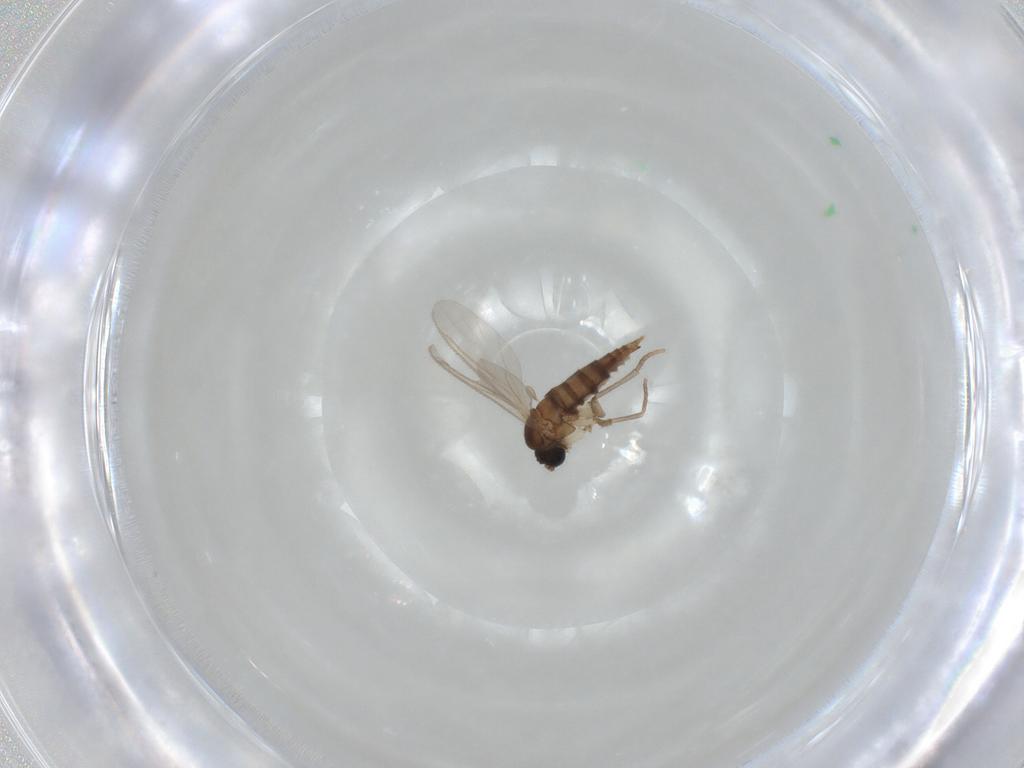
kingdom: Animalia
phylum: Arthropoda
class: Insecta
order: Diptera
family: Sciaridae
